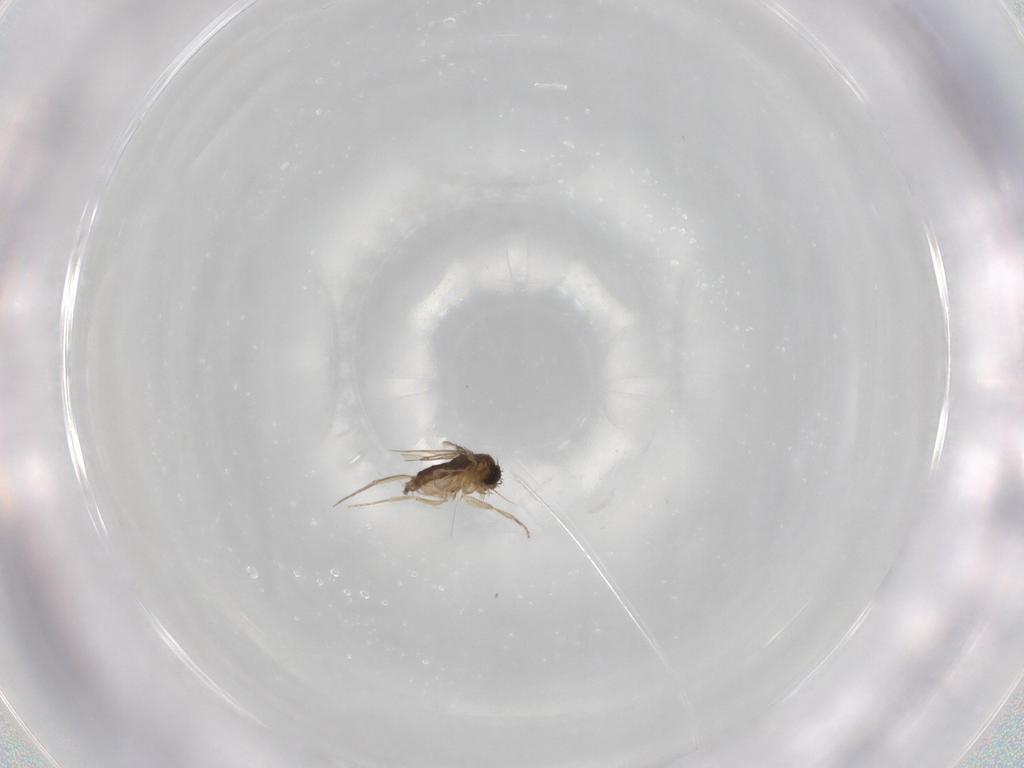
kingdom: Animalia
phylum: Arthropoda
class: Insecta
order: Diptera
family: Phoridae
